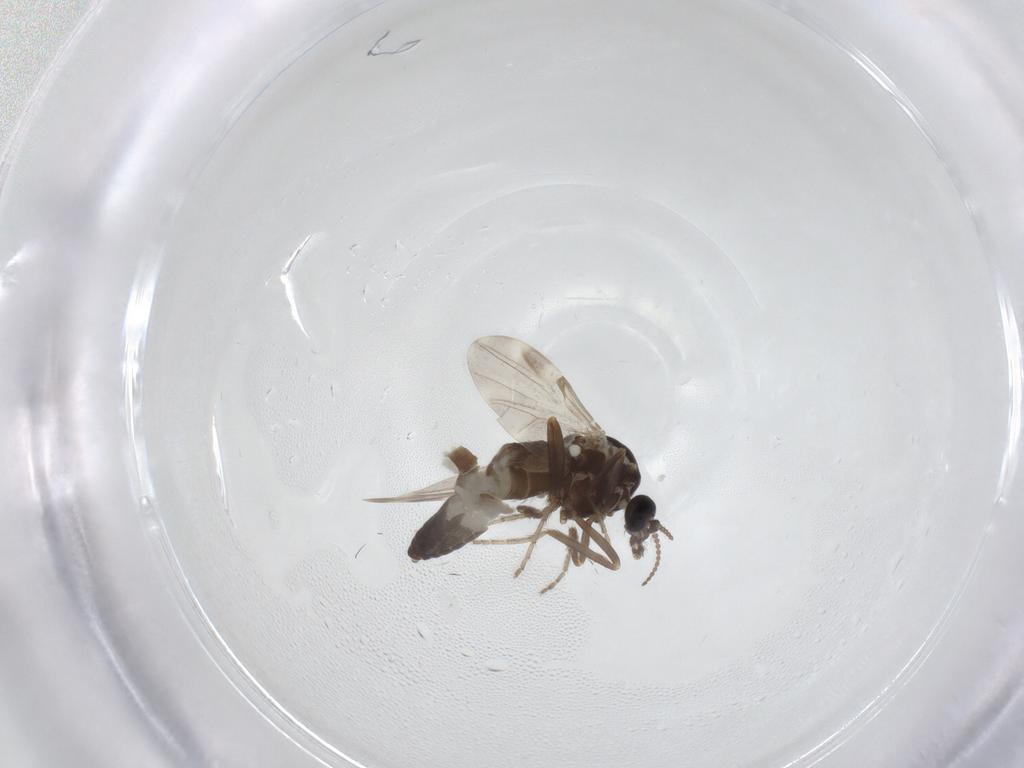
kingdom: Animalia
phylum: Arthropoda
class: Insecta
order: Diptera
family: Ceratopogonidae
